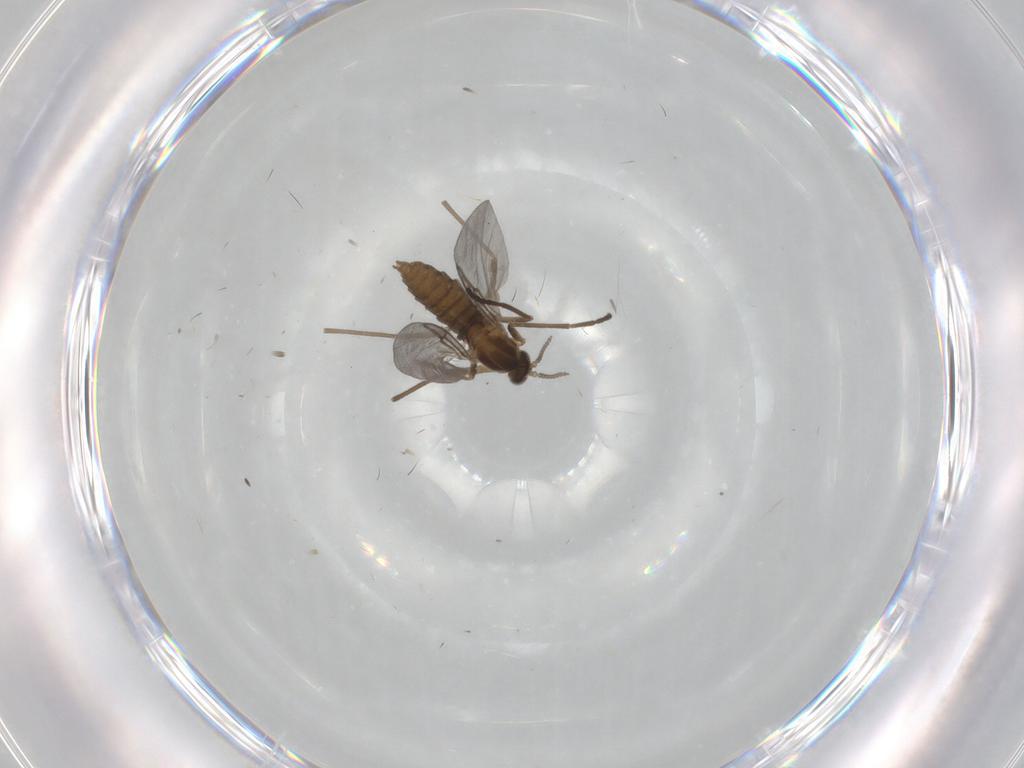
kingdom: Animalia
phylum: Arthropoda
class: Insecta
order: Diptera
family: Cecidomyiidae
